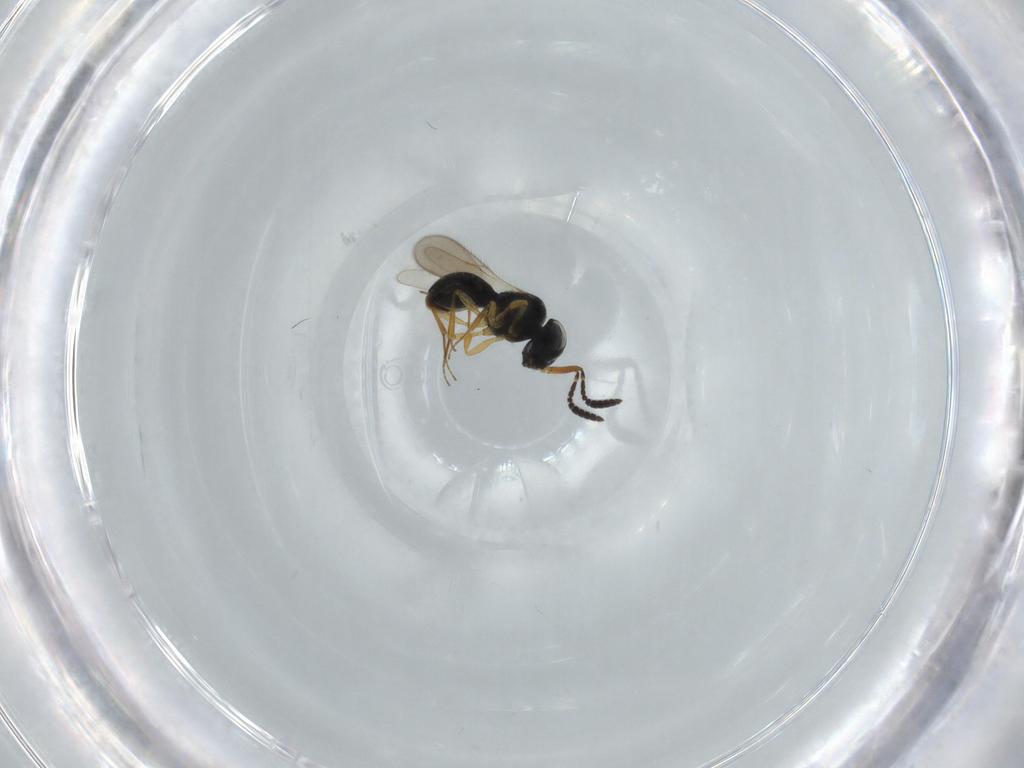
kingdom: Animalia
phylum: Arthropoda
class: Insecta
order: Hymenoptera
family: Scelionidae
